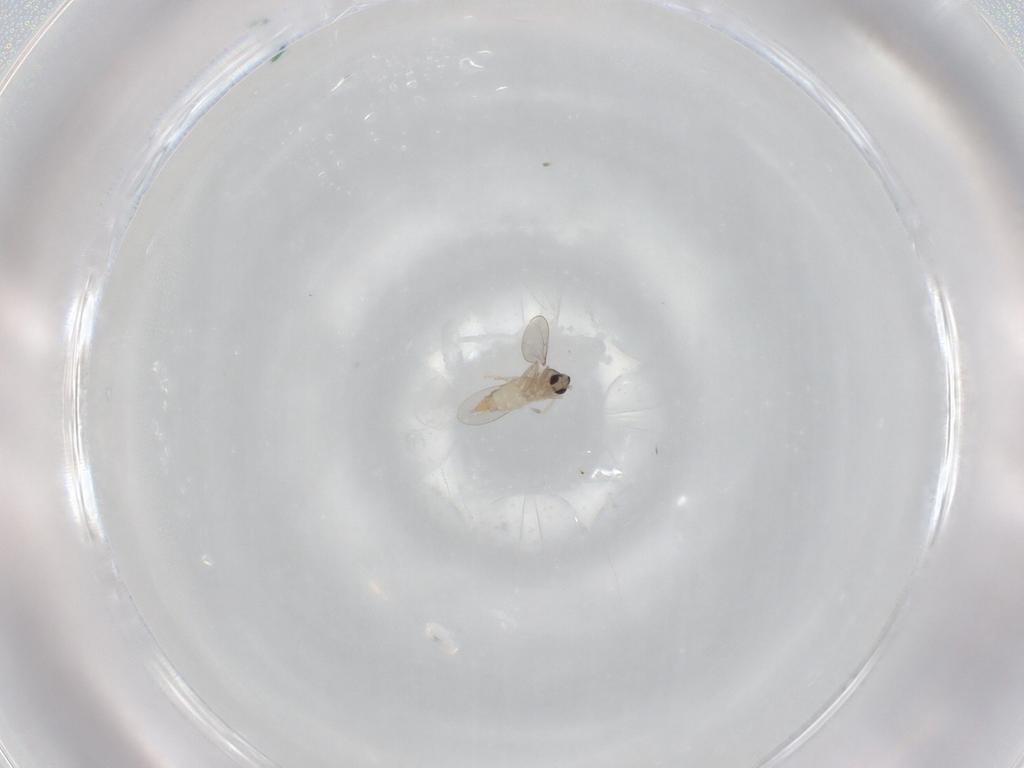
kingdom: Animalia
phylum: Arthropoda
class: Insecta
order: Diptera
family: Cecidomyiidae
